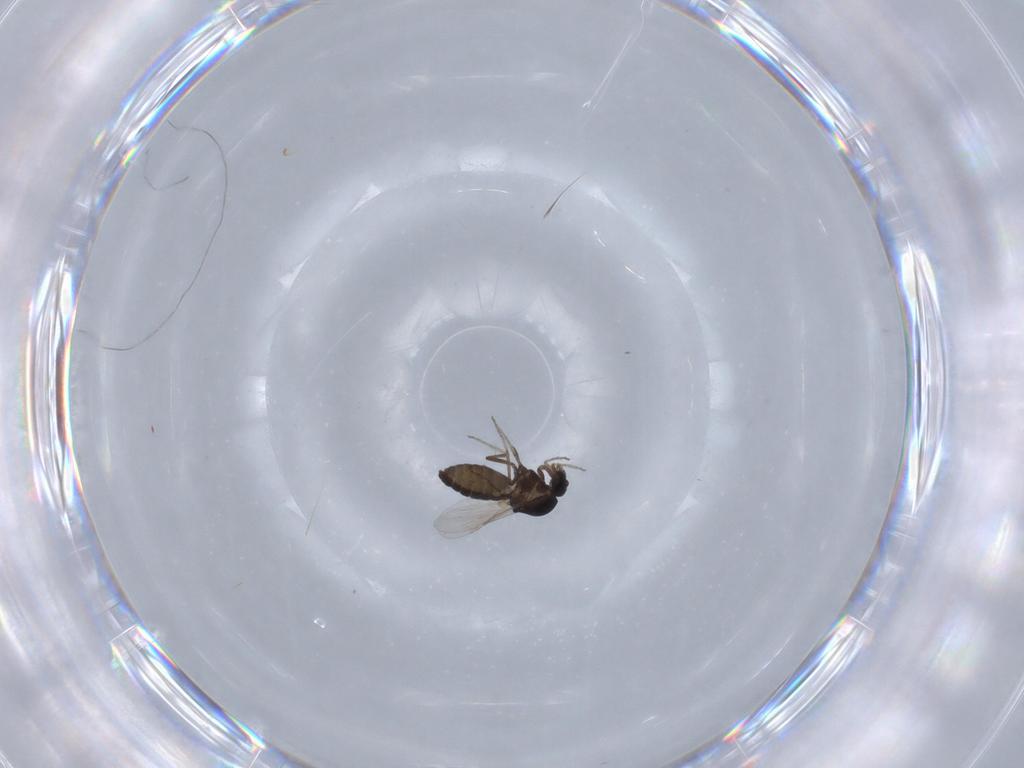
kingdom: Animalia
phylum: Arthropoda
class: Insecta
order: Diptera
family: Ceratopogonidae
